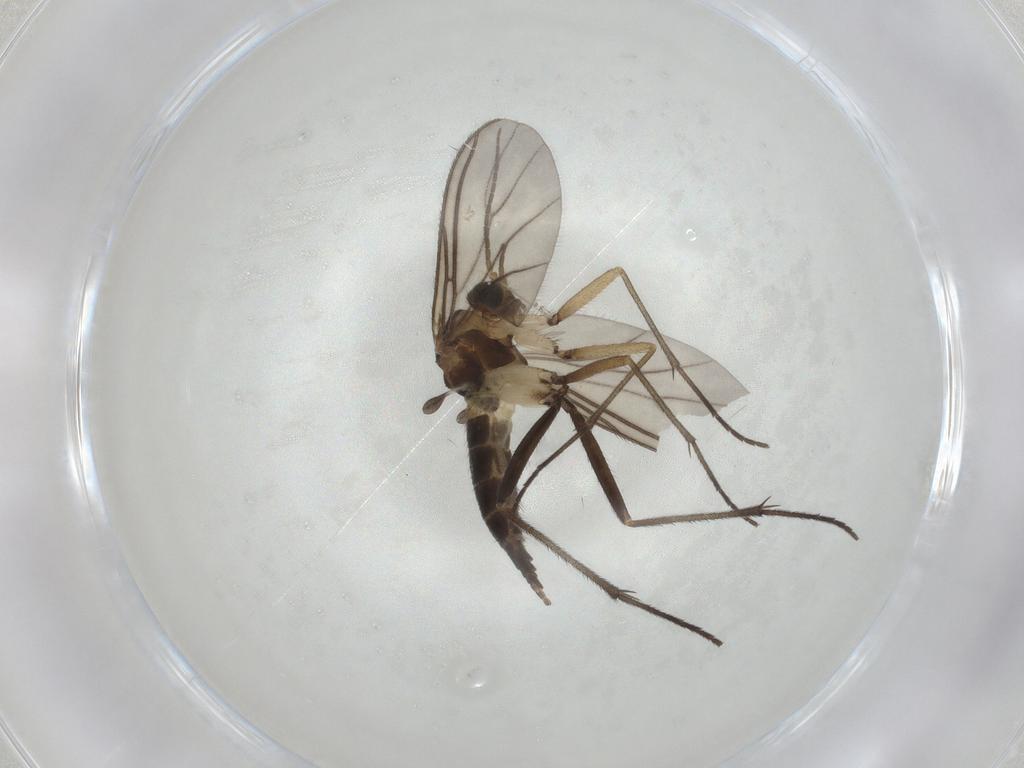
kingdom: Animalia
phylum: Arthropoda
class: Insecta
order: Diptera
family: Sciaridae
